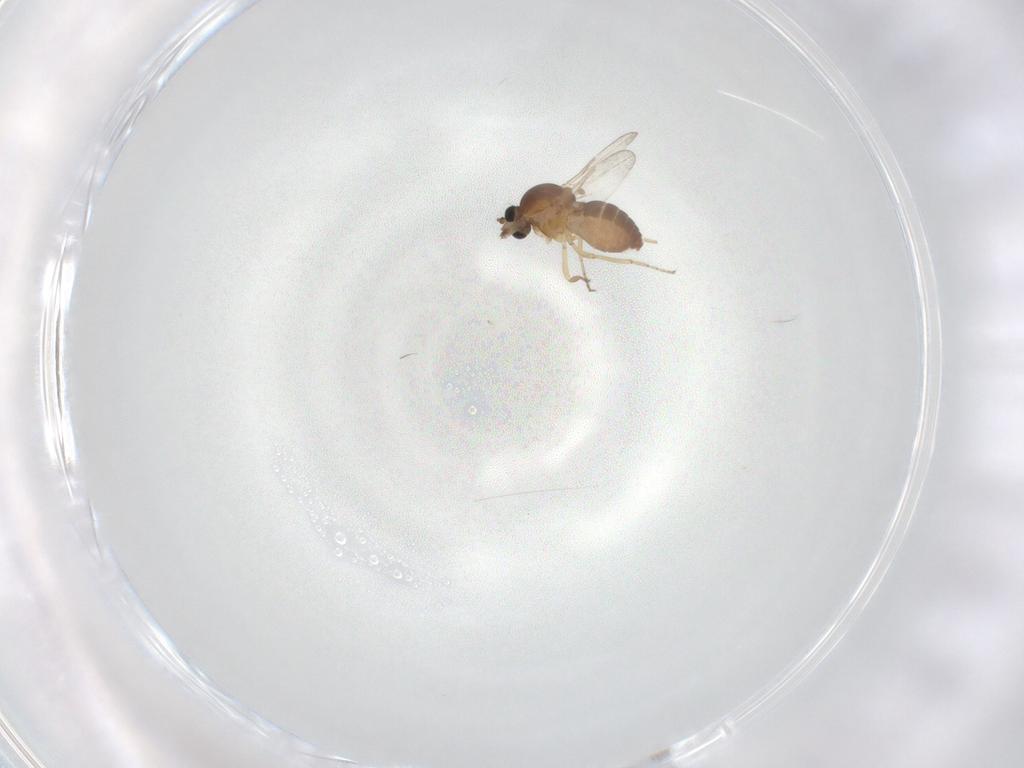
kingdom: Animalia
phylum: Arthropoda
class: Insecta
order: Diptera
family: Ceratopogonidae
